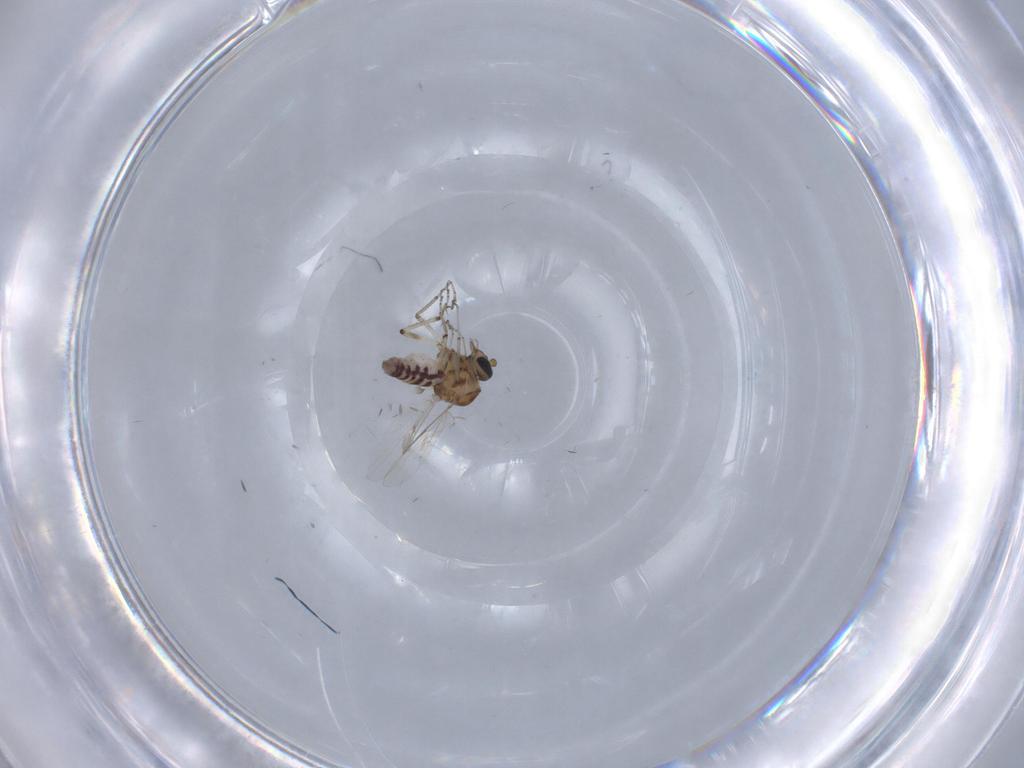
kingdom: Animalia
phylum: Arthropoda
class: Insecta
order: Diptera
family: Ceratopogonidae
